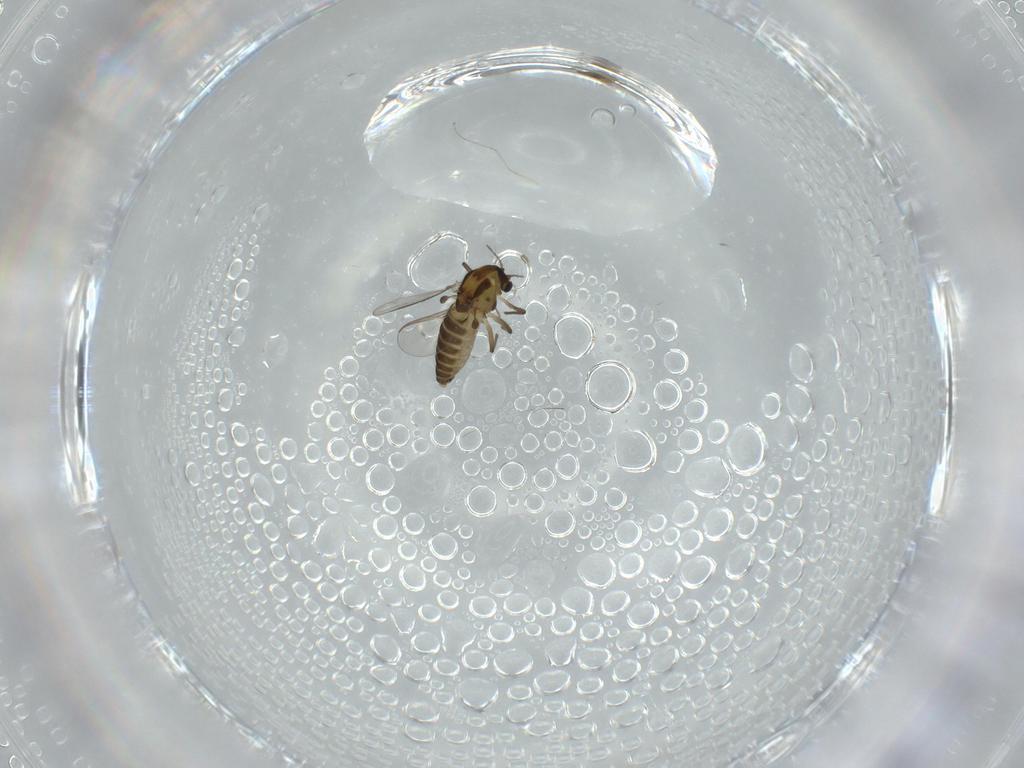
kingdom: Animalia
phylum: Arthropoda
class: Insecta
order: Diptera
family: Chironomidae
